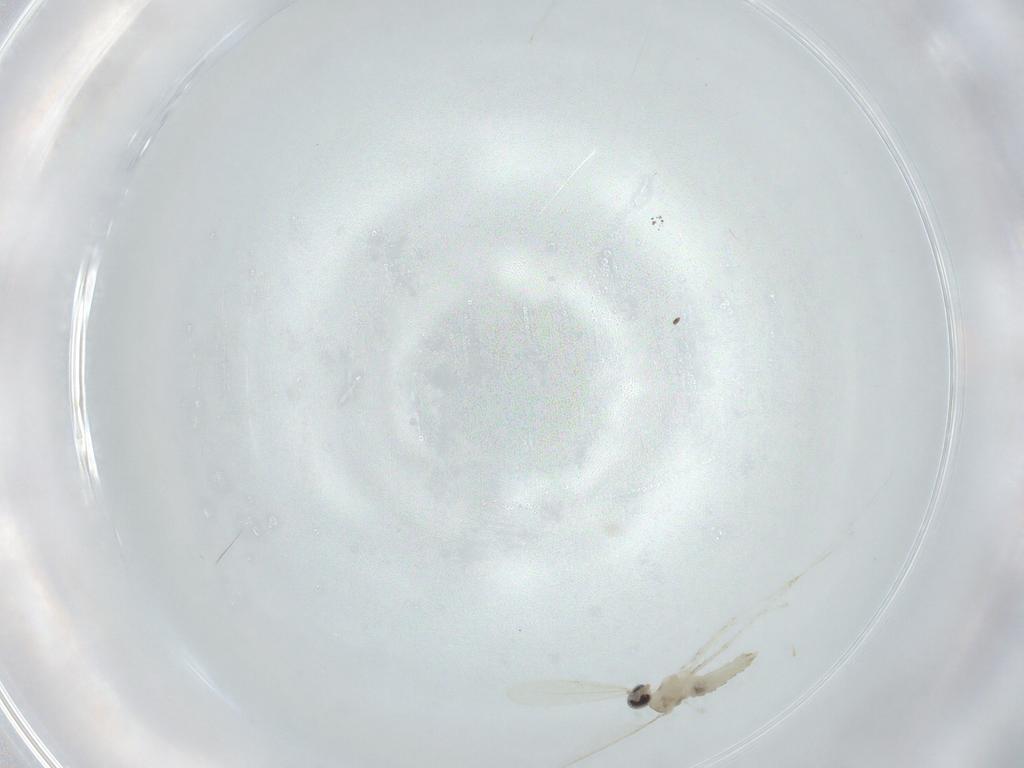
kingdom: Animalia
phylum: Arthropoda
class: Insecta
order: Diptera
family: Cecidomyiidae
